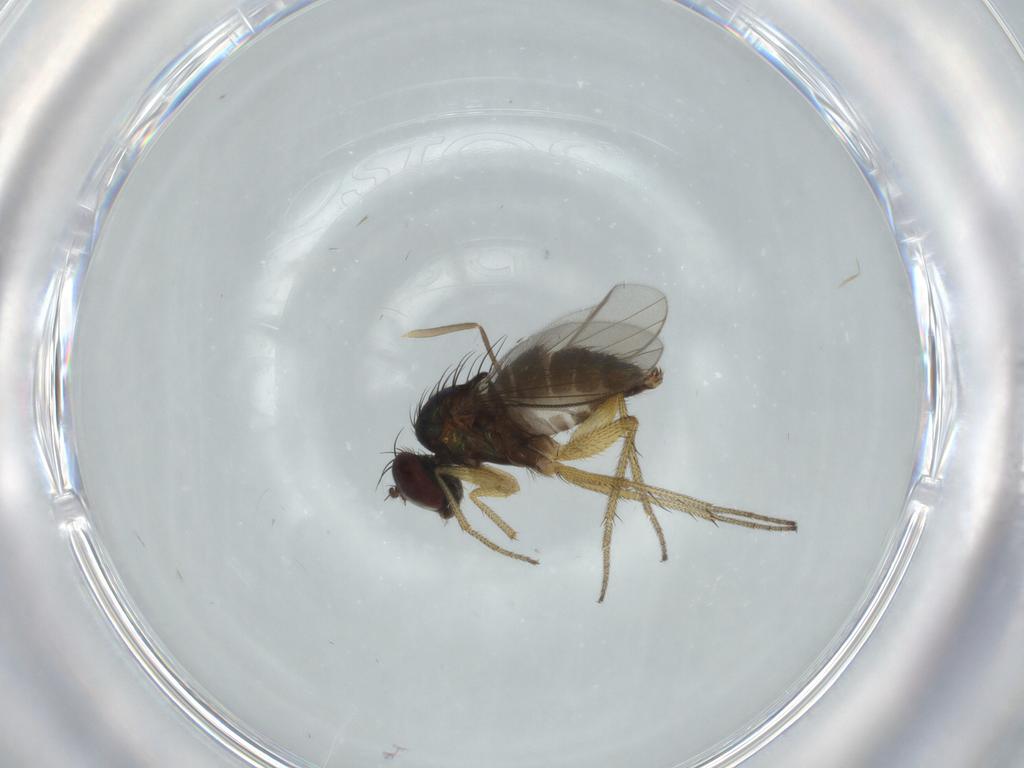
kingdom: Animalia
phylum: Arthropoda
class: Insecta
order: Diptera
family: Dolichopodidae
